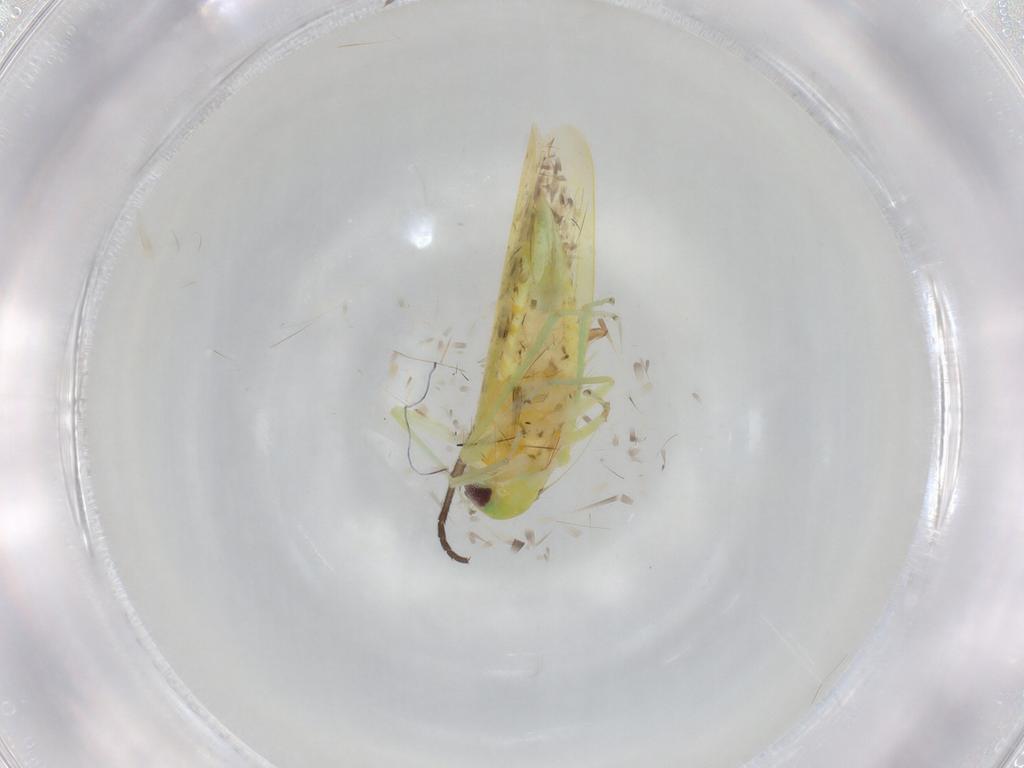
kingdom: Animalia
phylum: Arthropoda
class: Insecta
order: Hemiptera
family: Cicadellidae
